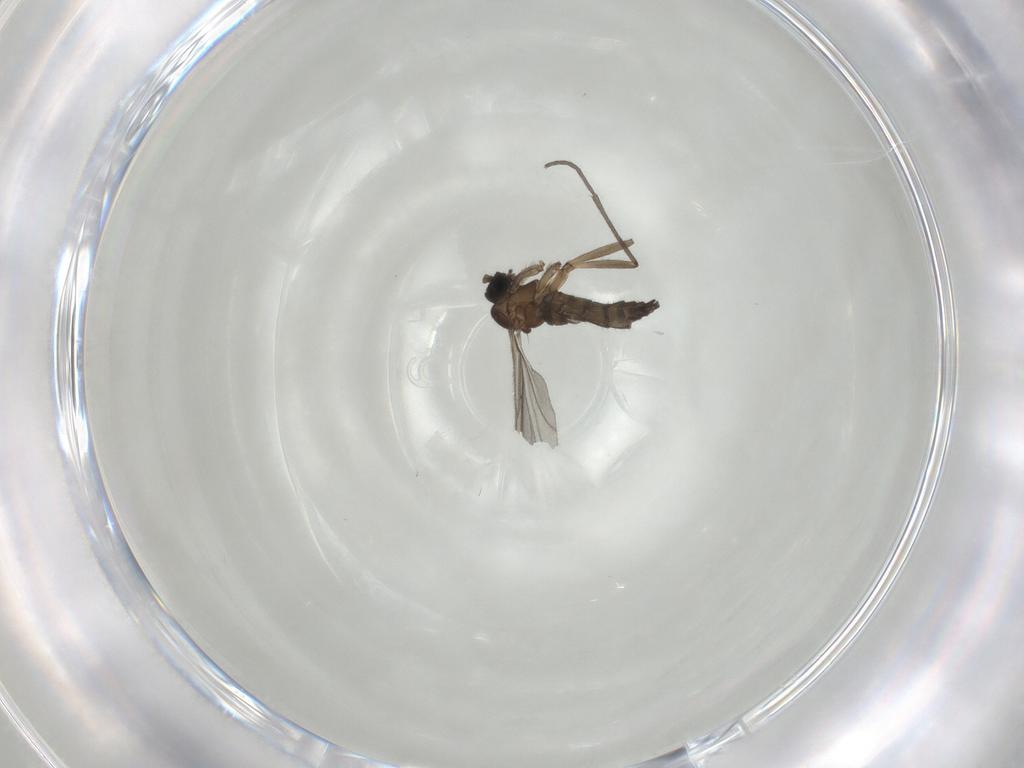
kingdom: Animalia
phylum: Arthropoda
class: Insecta
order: Diptera
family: Sciaridae
